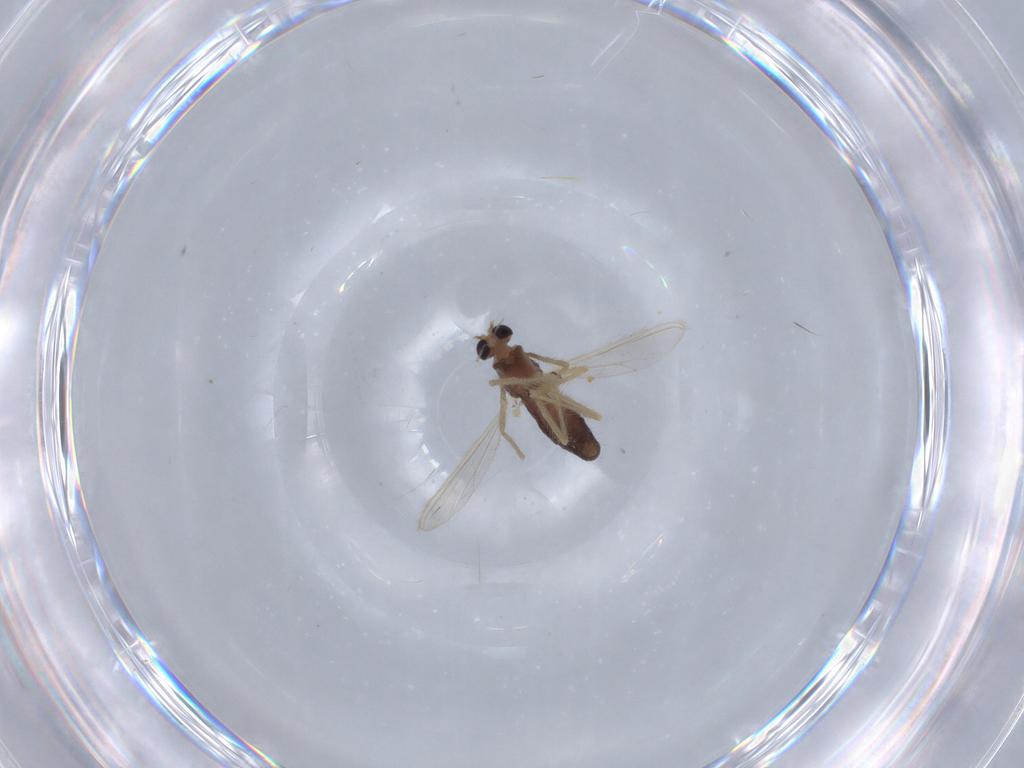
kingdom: Animalia
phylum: Arthropoda
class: Insecta
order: Diptera
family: Chironomidae
